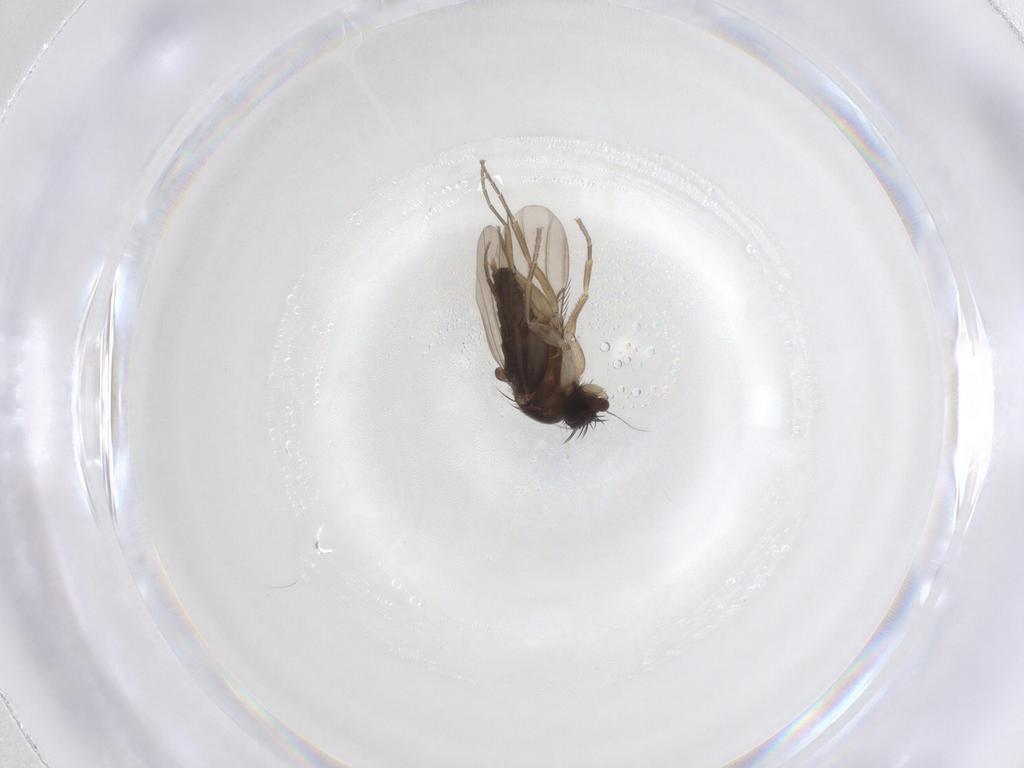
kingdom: Animalia
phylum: Arthropoda
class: Insecta
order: Diptera
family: Phoridae
